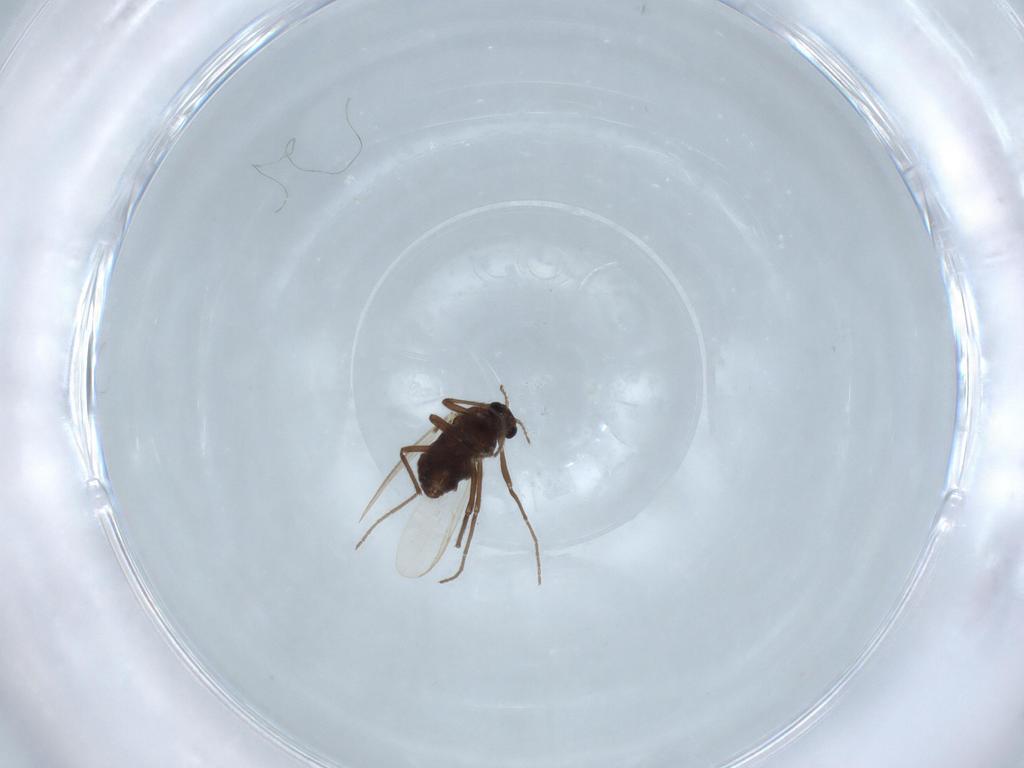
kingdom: Animalia
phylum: Arthropoda
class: Insecta
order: Diptera
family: Chironomidae
